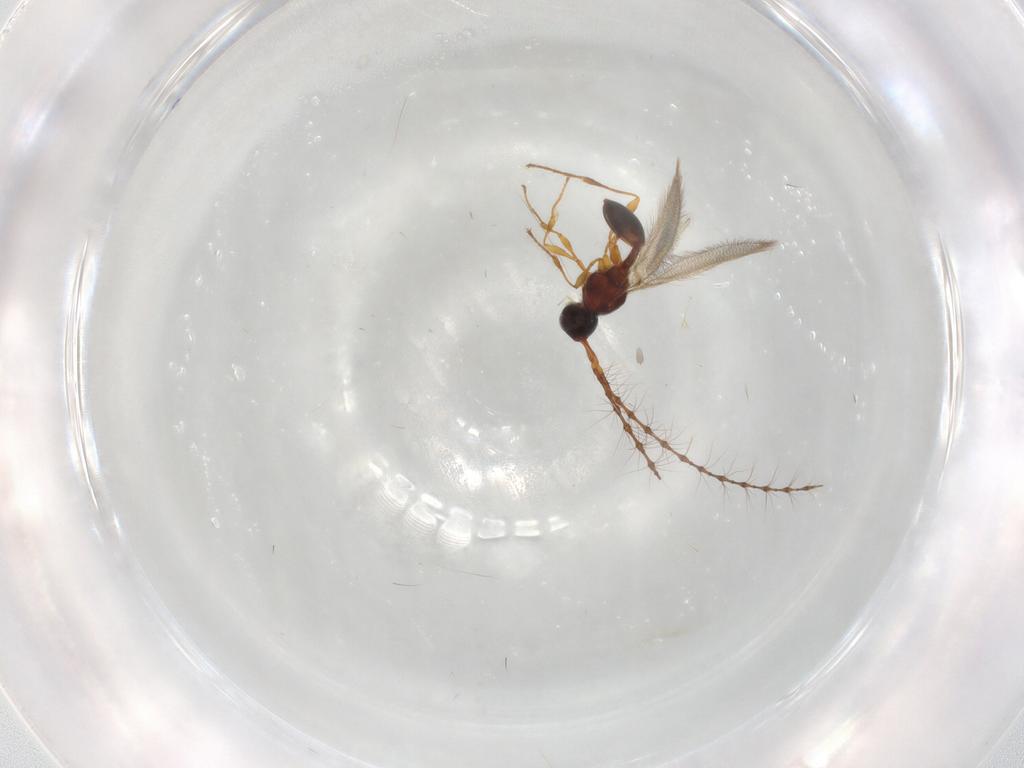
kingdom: Animalia
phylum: Arthropoda
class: Insecta
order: Hymenoptera
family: Diapriidae
